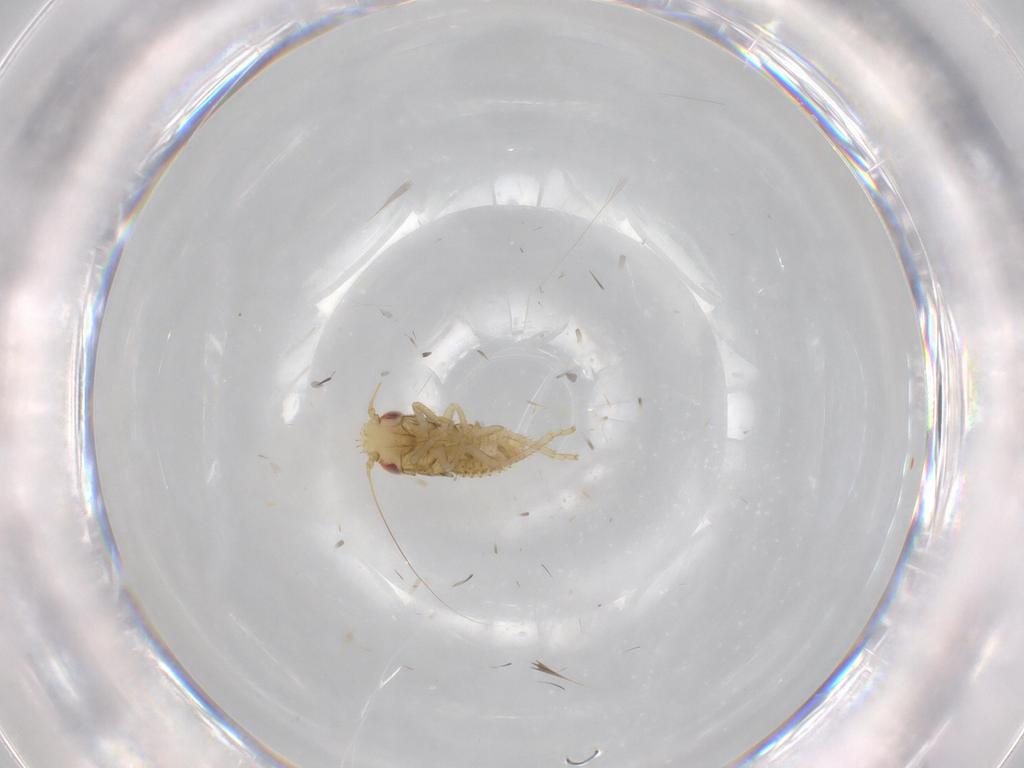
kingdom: Animalia
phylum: Arthropoda
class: Insecta
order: Hemiptera
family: Cicadellidae
